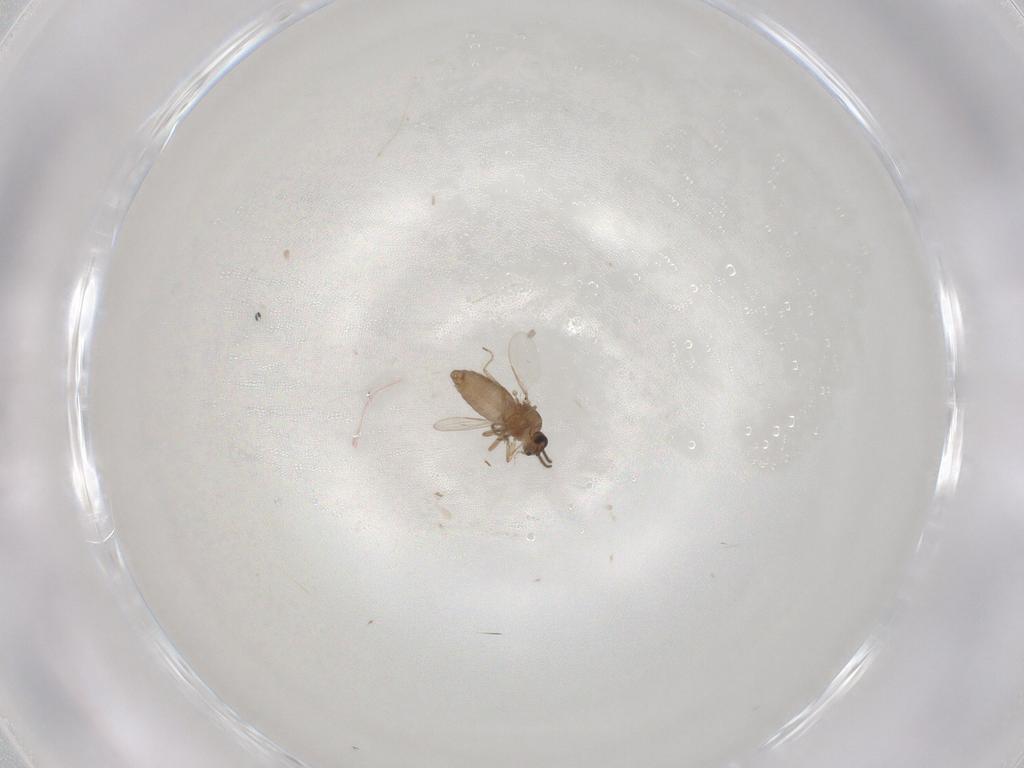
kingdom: Animalia
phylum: Arthropoda
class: Insecta
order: Diptera
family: Ceratopogonidae
